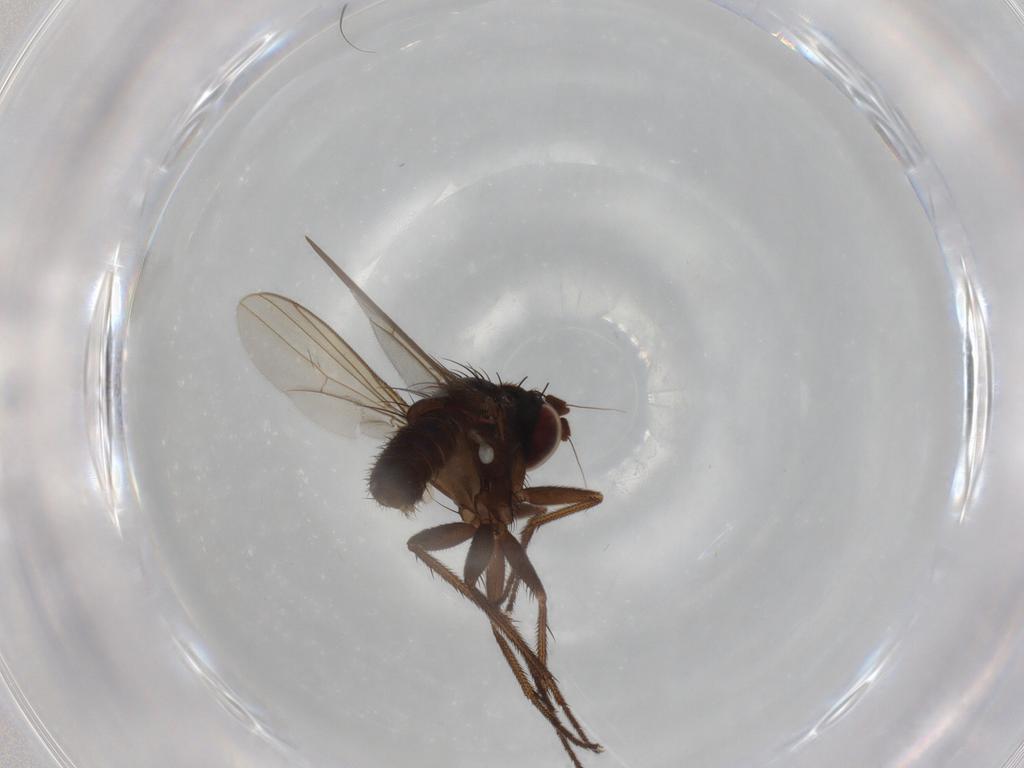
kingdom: Animalia
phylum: Arthropoda
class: Insecta
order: Diptera
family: Dolichopodidae
